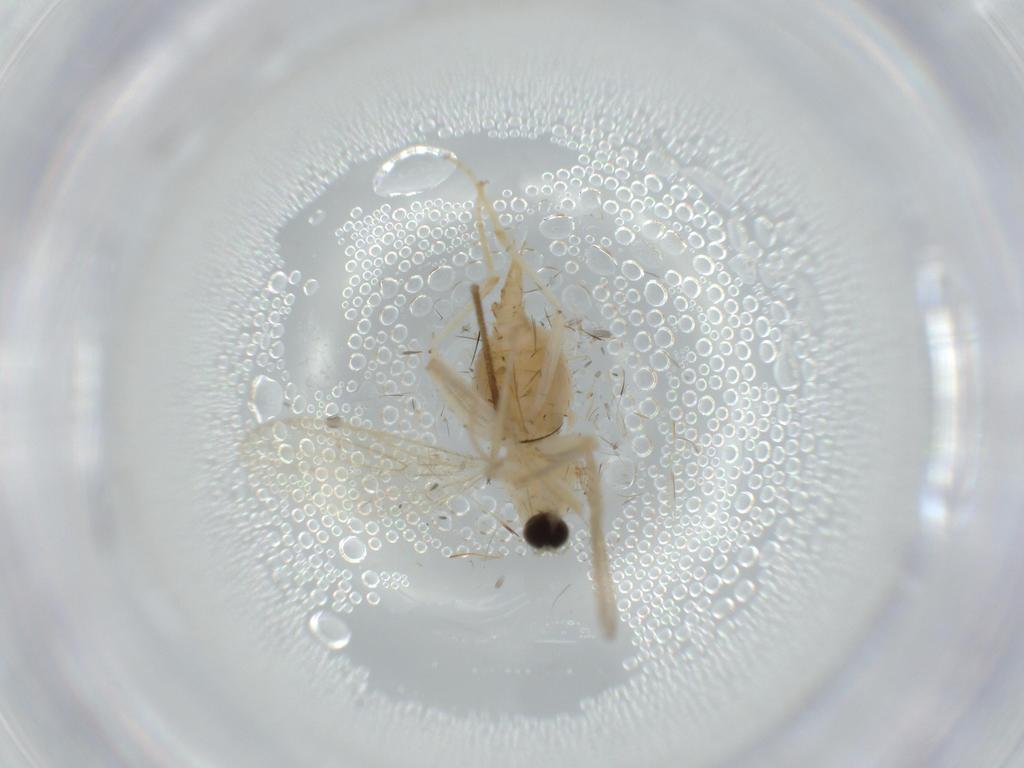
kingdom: Animalia
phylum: Arthropoda
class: Insecta
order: Diptera
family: Hybotidae
